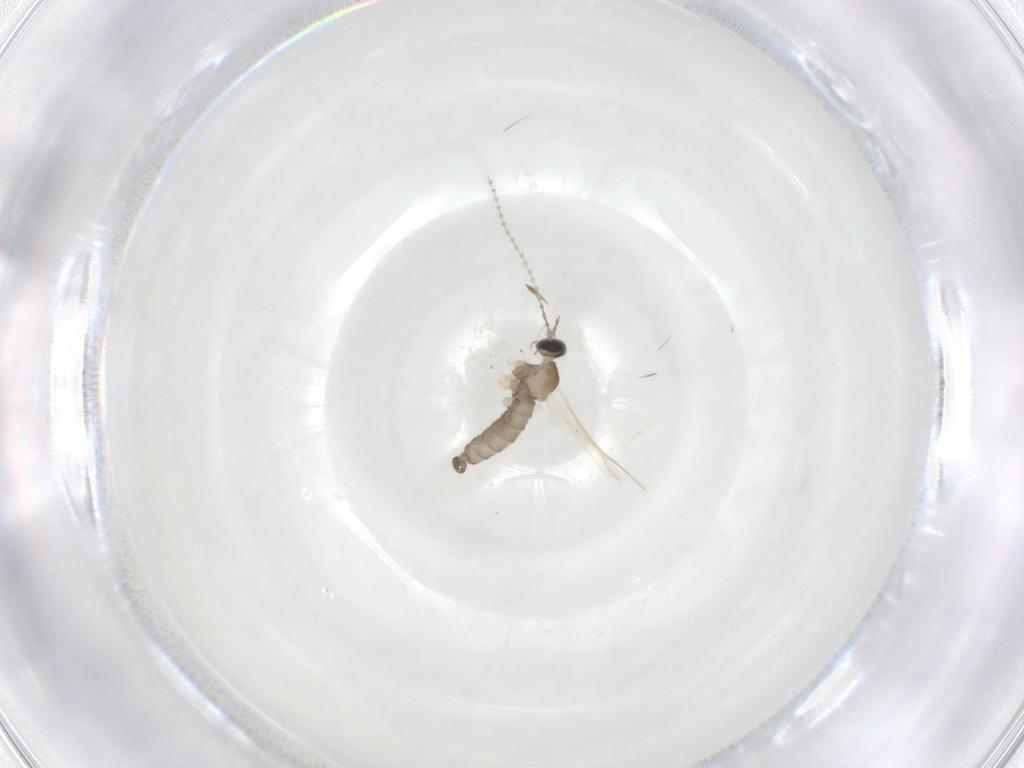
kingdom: Animalia
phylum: Arthropoda
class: Insecta
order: Diptera
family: Cecidomyiidae
